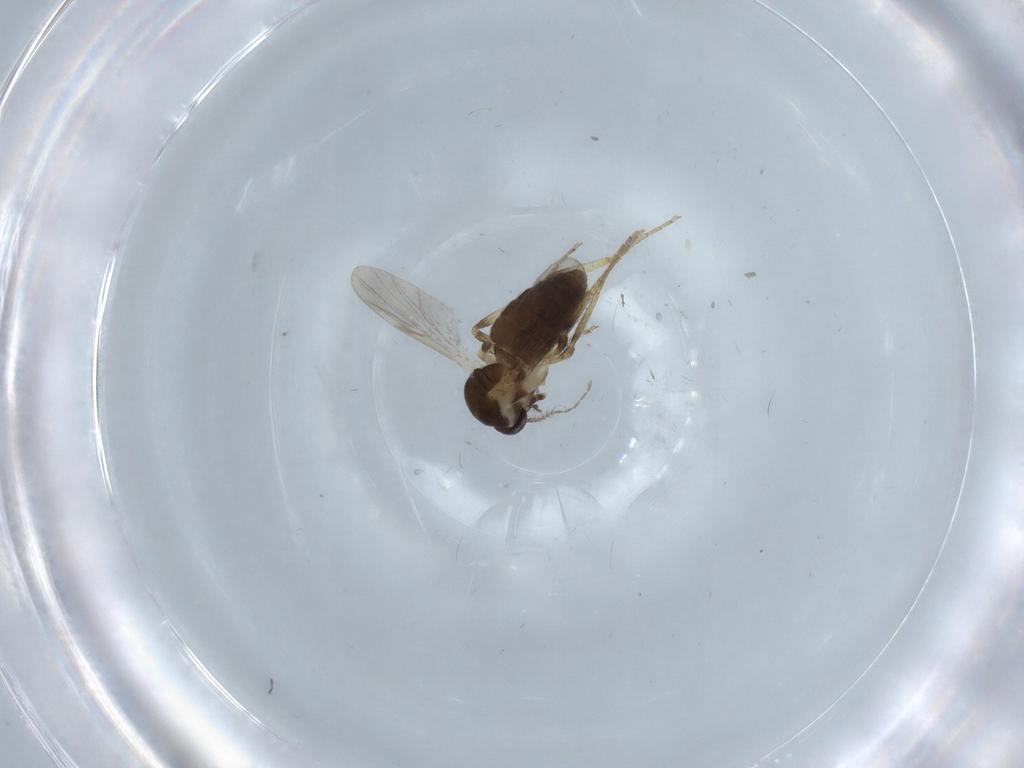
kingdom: Animalia
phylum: Arthropoda
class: Insecta
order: Diptera
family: Ceratopogonidae
